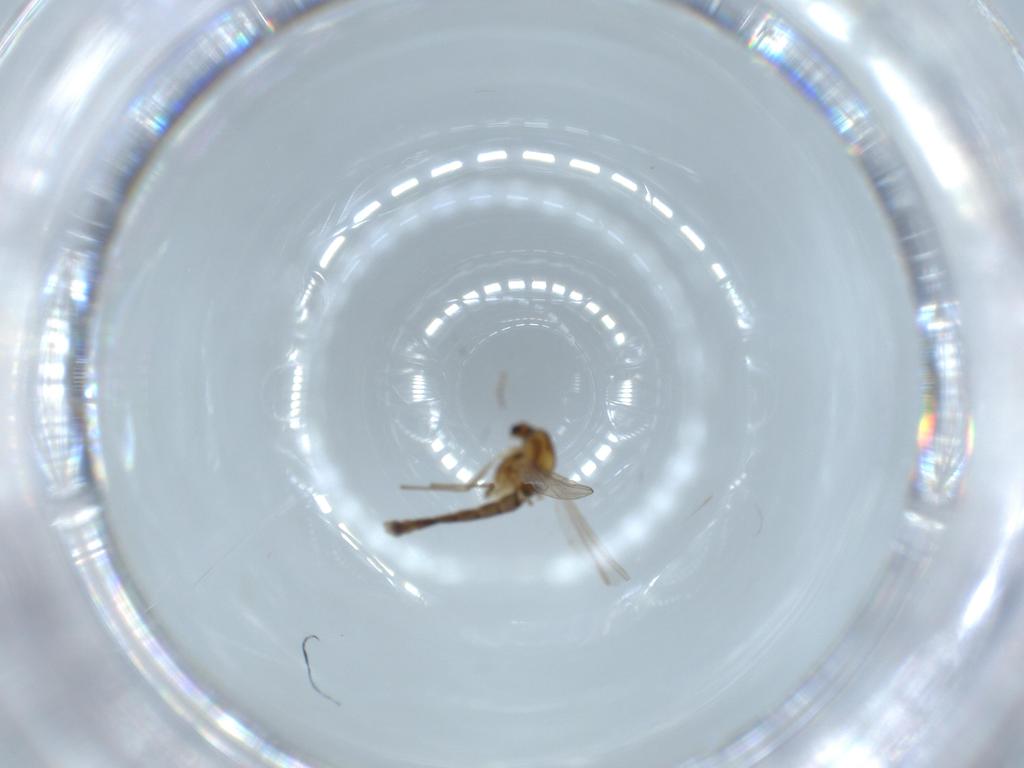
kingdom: Animalia
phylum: Arthropoda
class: Insecta
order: Diptera
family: Chironomidae
